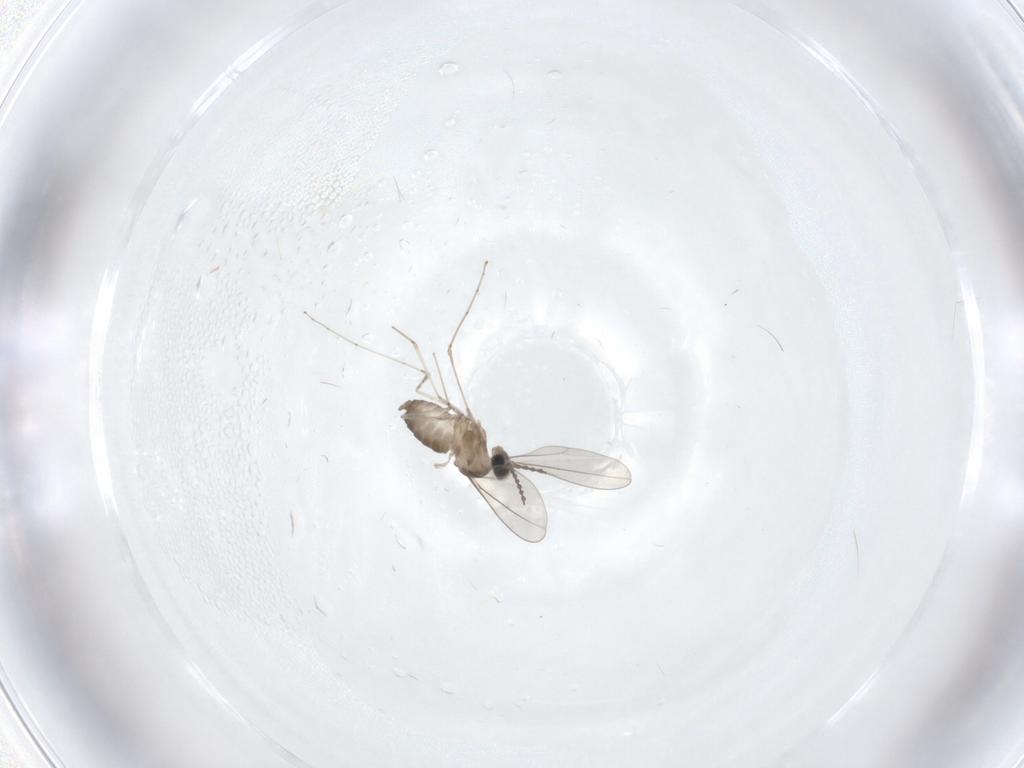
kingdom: Animalia
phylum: Arthropoda
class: Insecta
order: Diptera
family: Cecidomyiidae
